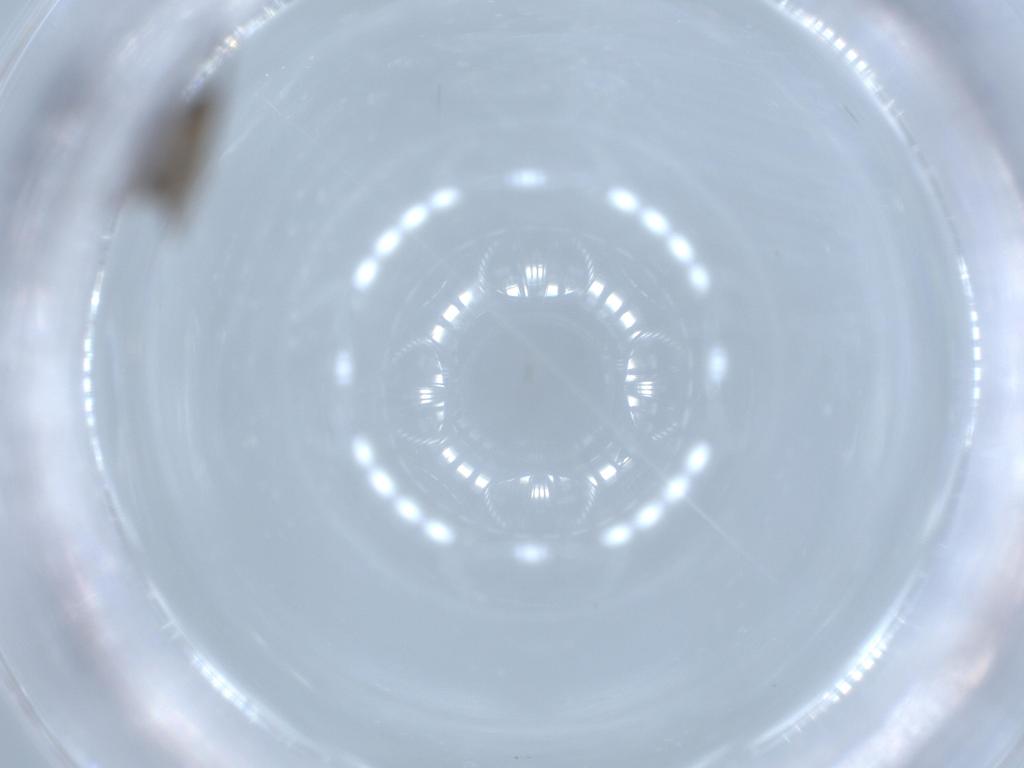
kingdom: Animalia
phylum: Arthropoda
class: Insecta
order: Diptera
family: Psychodidae
